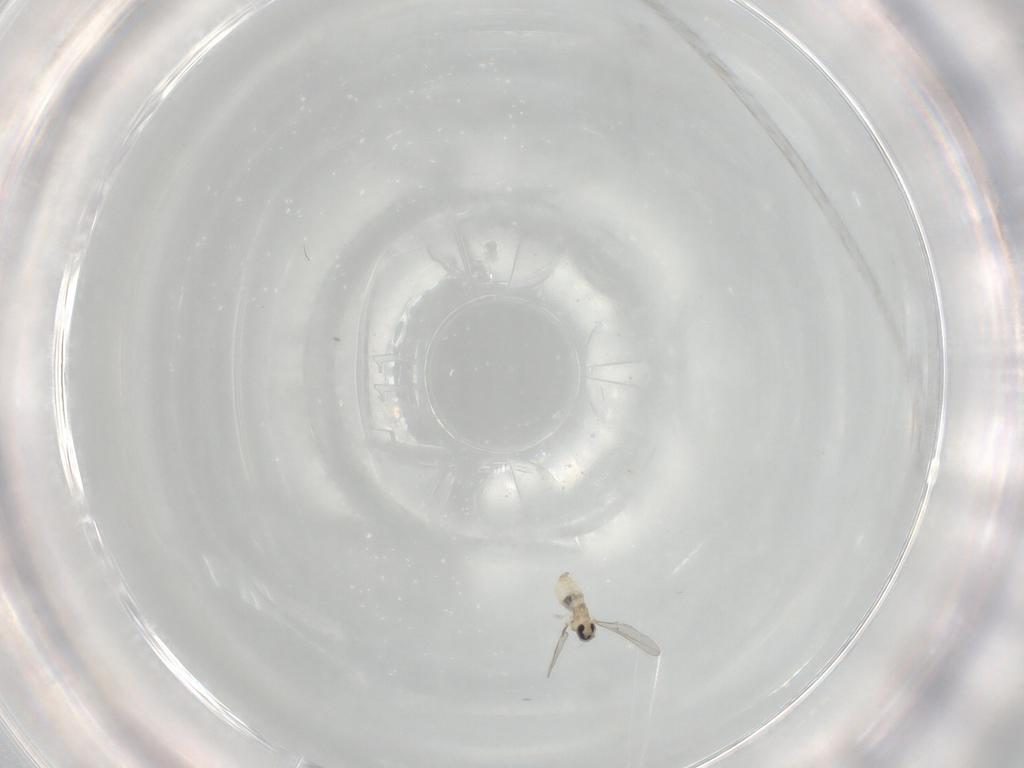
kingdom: Animalia
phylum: Arthropoda
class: Insecta
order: Diptera
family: Cecidomyiidae
